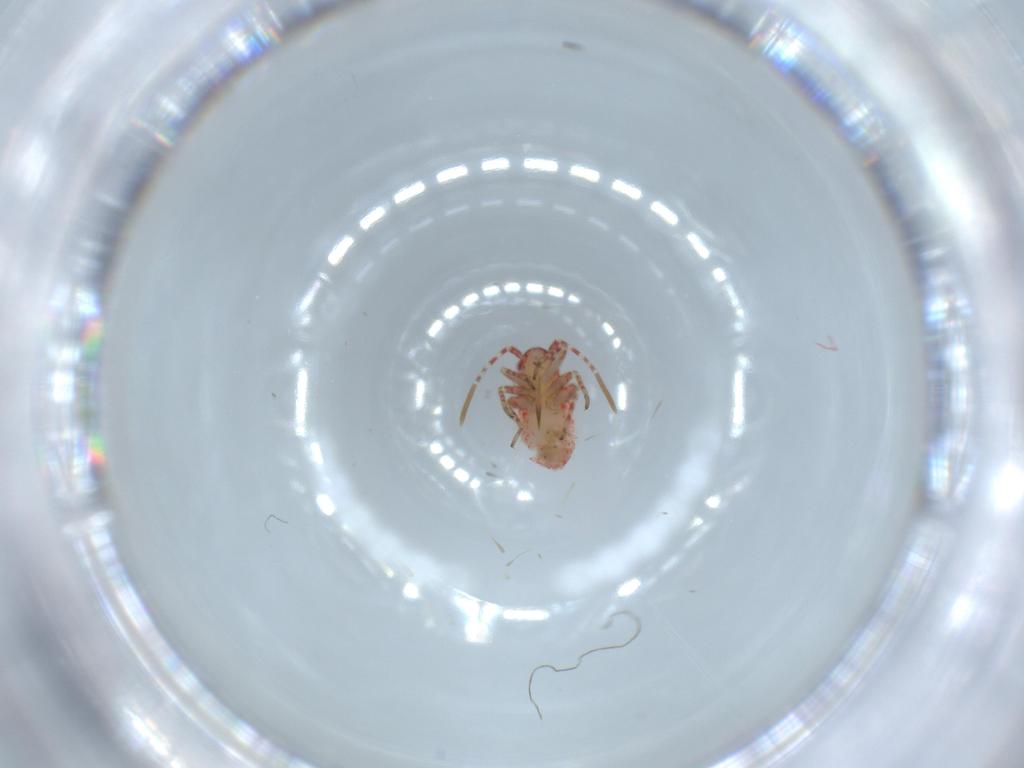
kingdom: Animalia
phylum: Arthropoda
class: Insecta
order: Hemiptera
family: Miridae
